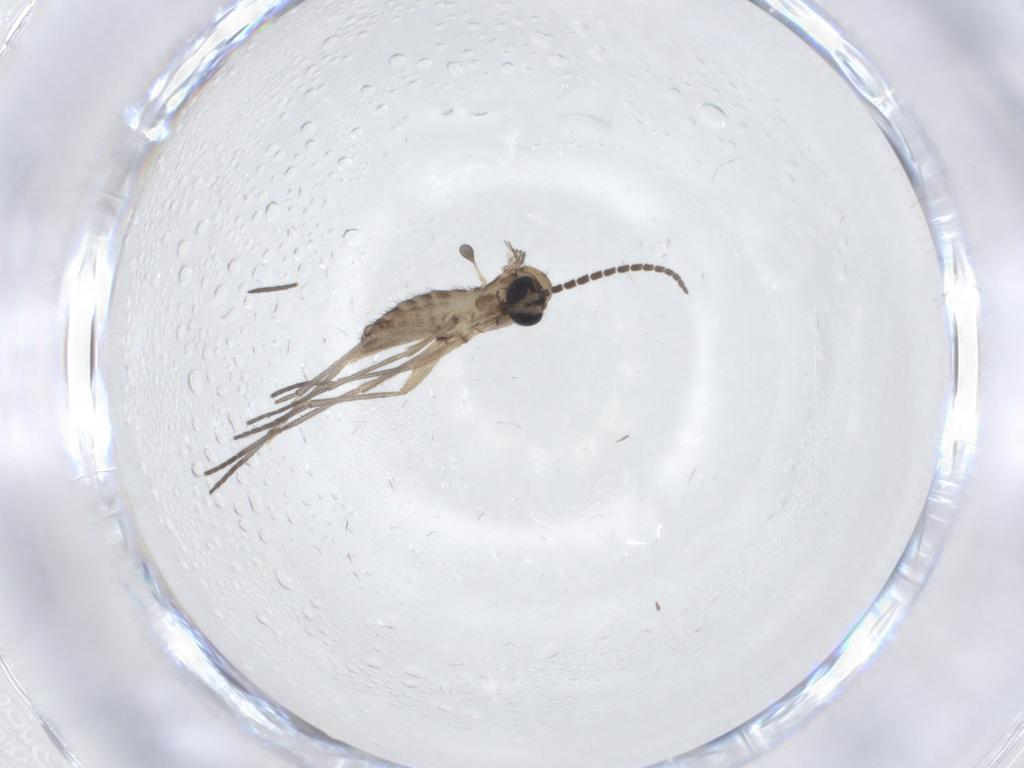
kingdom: Animalia
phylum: Arthropoda
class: Insecta
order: Diptera
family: Sciaridae
